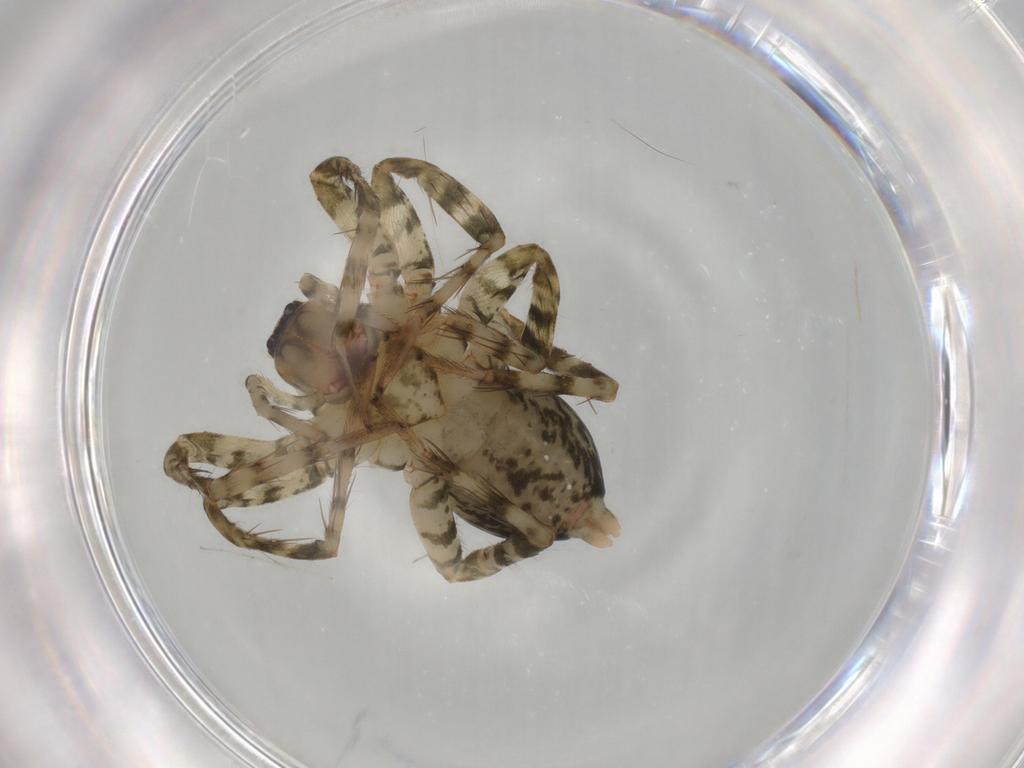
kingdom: Animalia
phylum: Arthropoda
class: Arachnida
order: Araneae
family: Amaurobiidae
